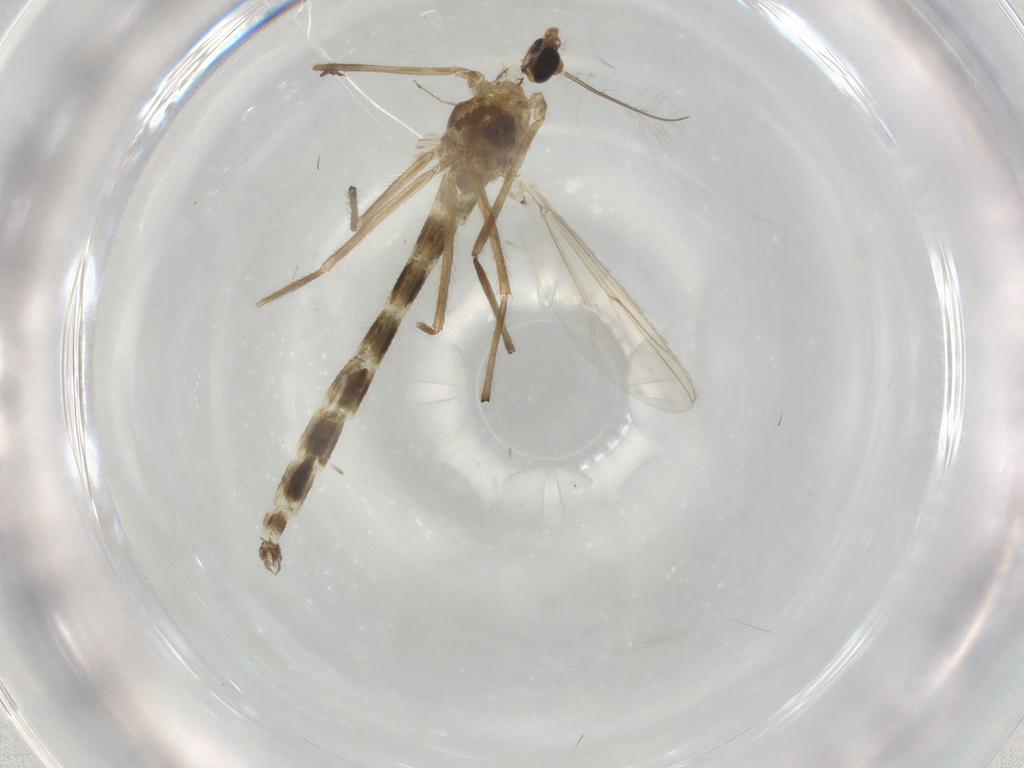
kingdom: Animalia
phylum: Arthropoda
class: Insecta
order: Diptera
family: Chironomidae
